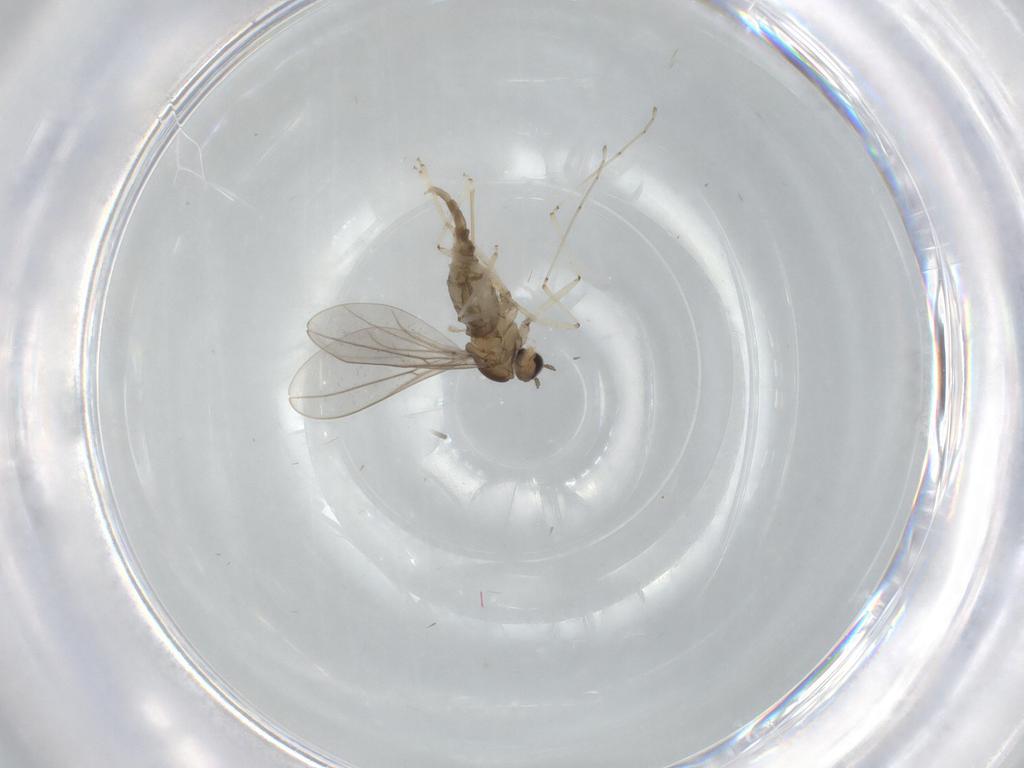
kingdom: Animalia
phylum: Arthropoda
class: Insecta
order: Diptera
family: Cecidomyiidae
